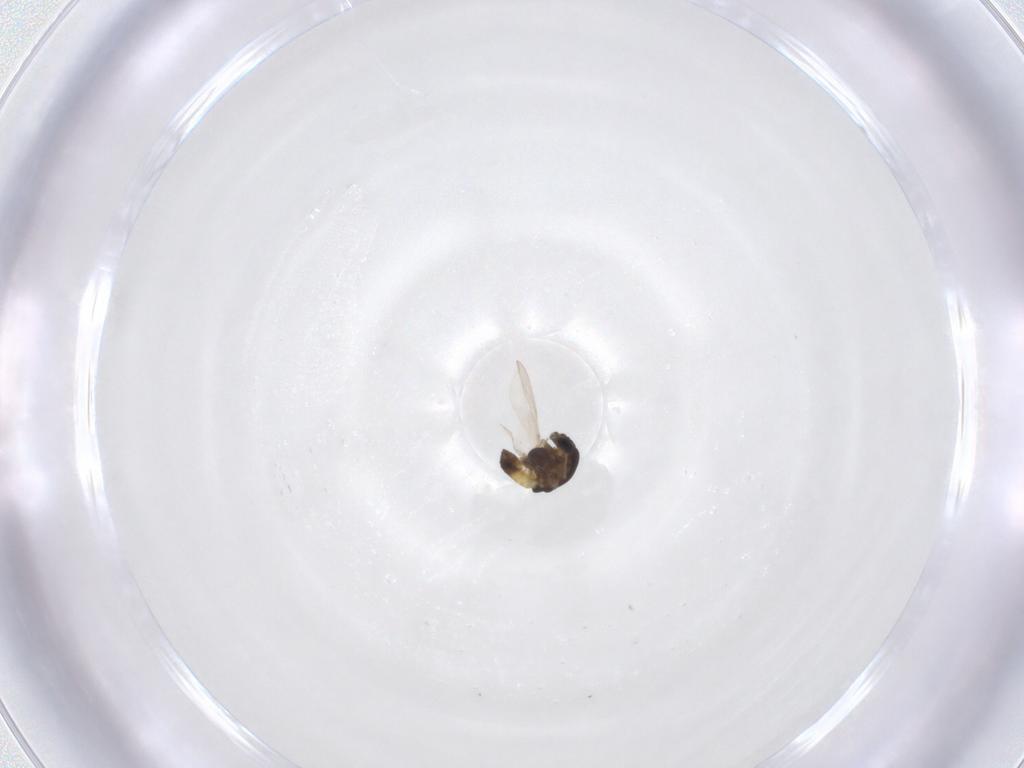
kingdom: Animalia
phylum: Arthropoda
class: Insecta
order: Diptera
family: Chironomidae
